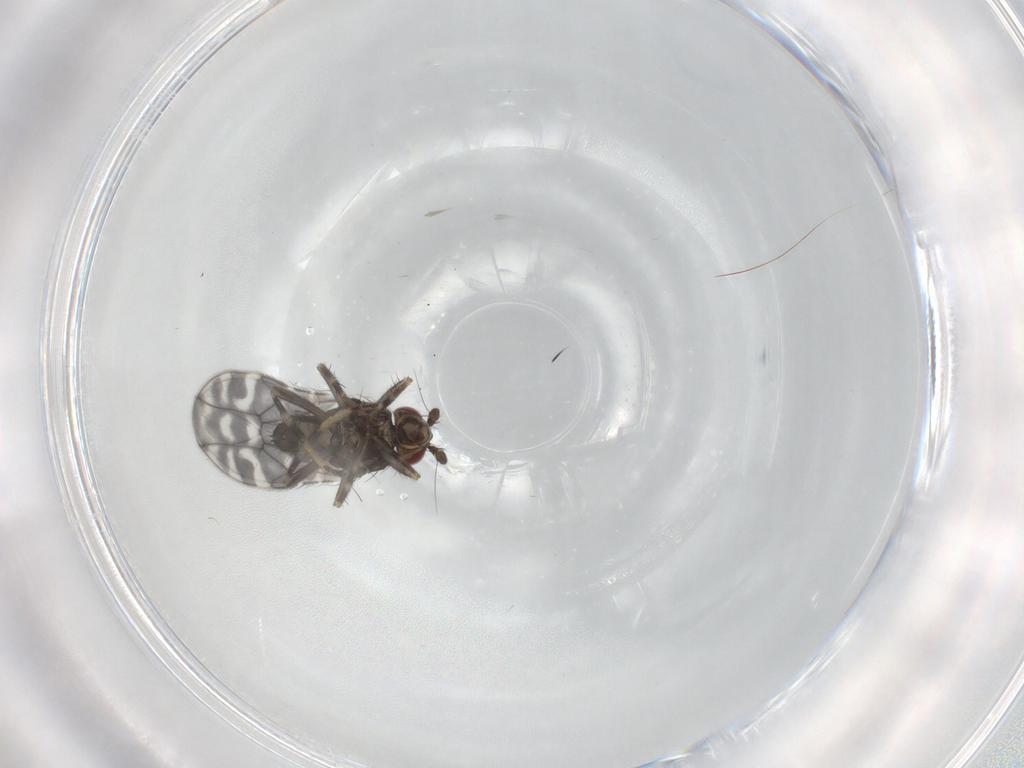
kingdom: Animalia
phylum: Arthropoda
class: Insecta
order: Diptera
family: Sphaeroceridae
